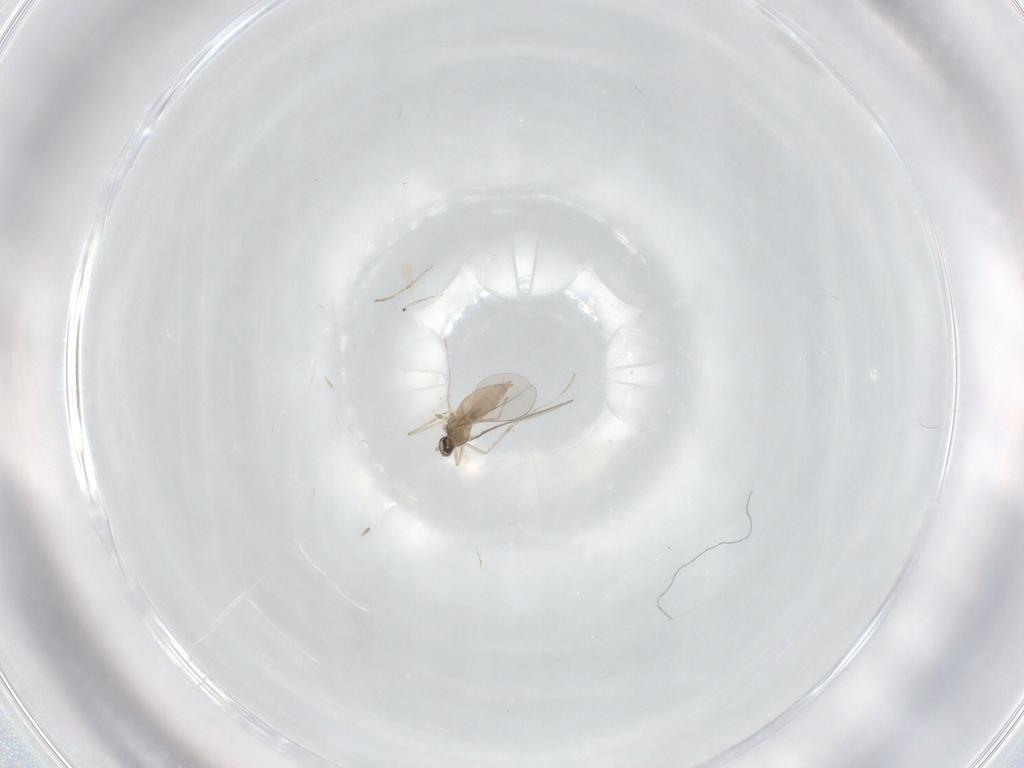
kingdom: Animalia
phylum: Arthropoda
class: Insecta
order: Diptera
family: Cecidomyiidae
